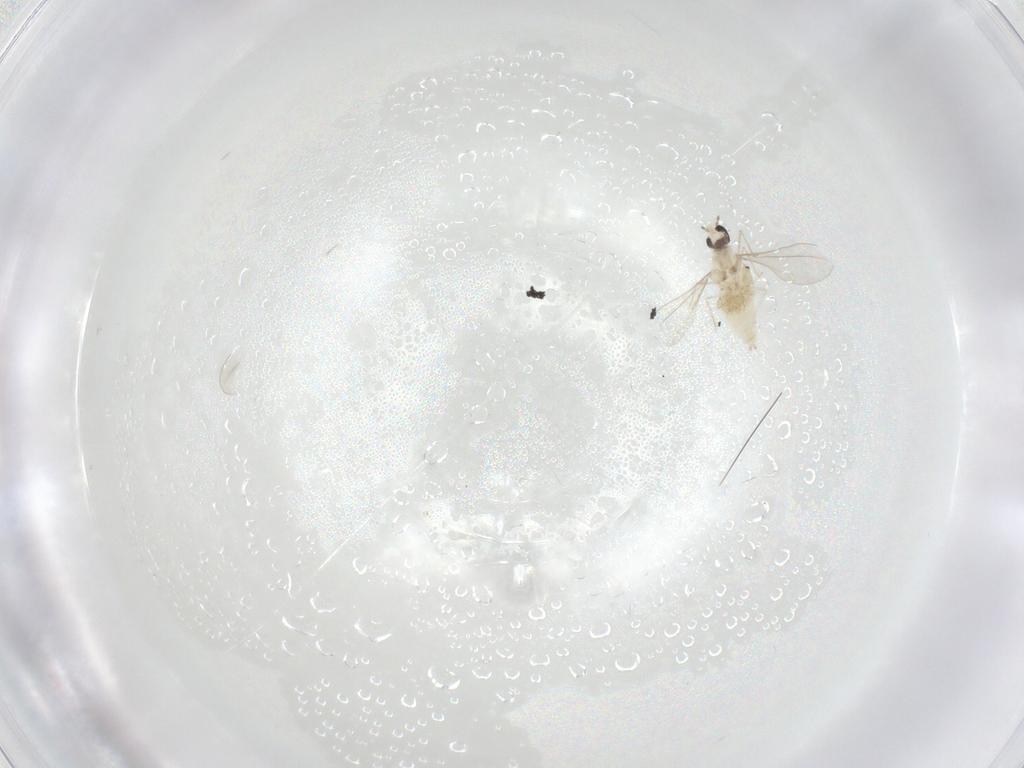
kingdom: Animalia
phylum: Arthropoda
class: Insecta
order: Diptera
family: Cecidomyiidae
